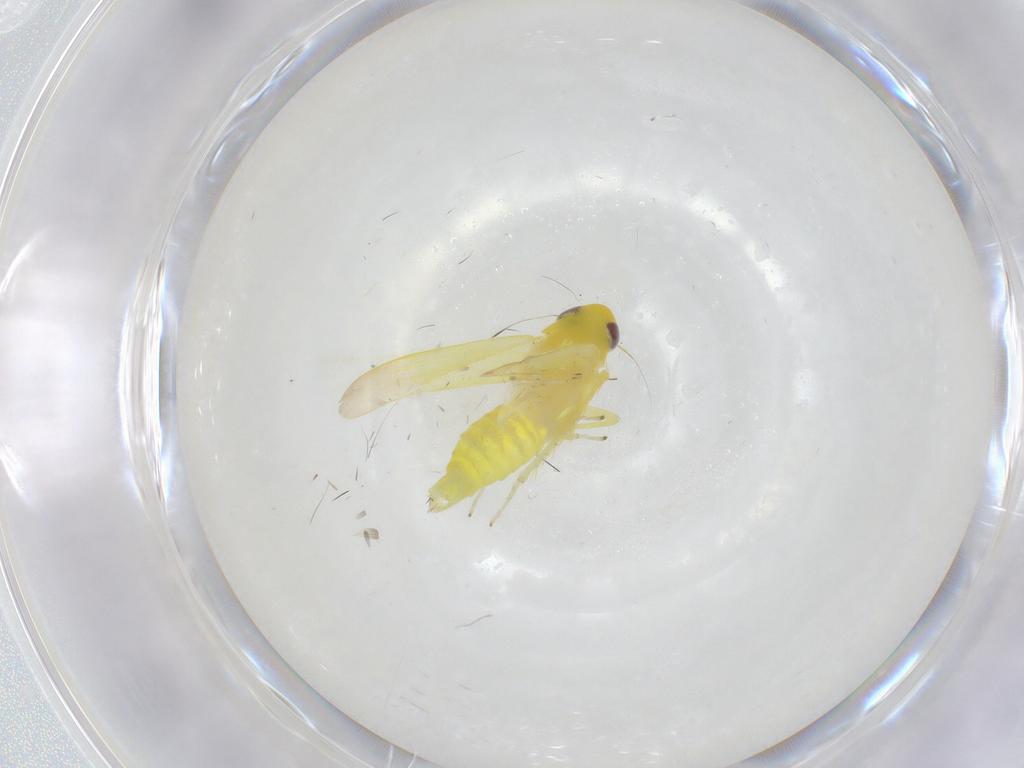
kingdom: Animalia
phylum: Arthropoda
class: Insecta
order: Hemiptera
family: Cicadellidae
